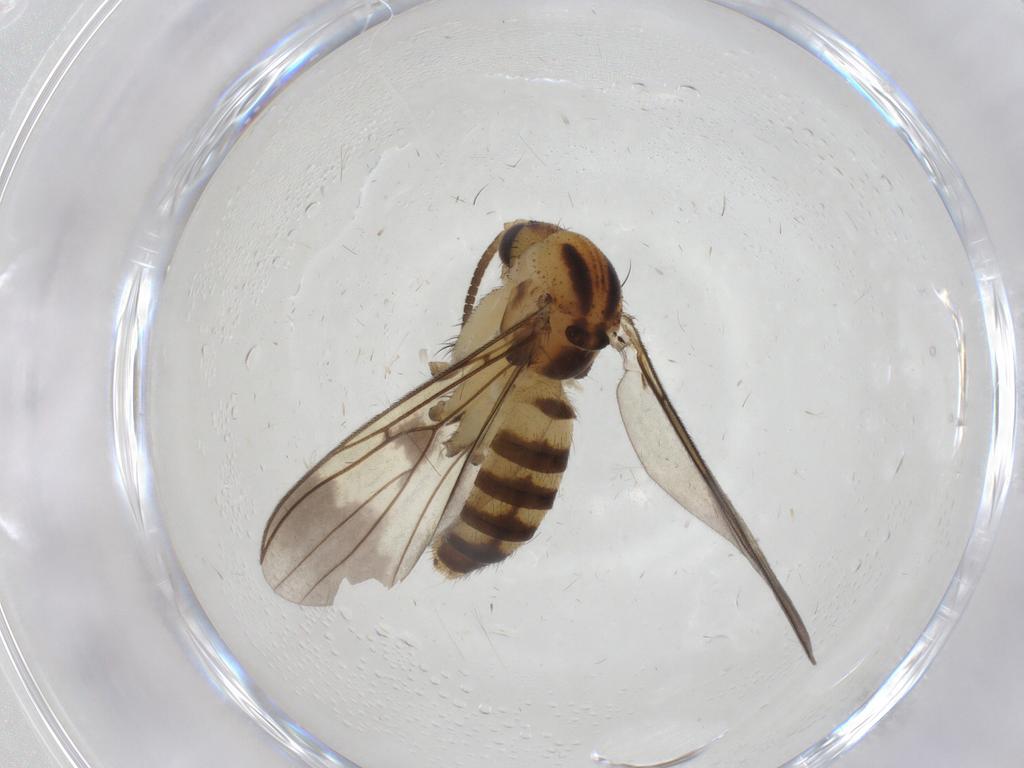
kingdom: Animalia
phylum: Arthropoda
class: Insecta
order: Diptera
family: Mycetophilidae
